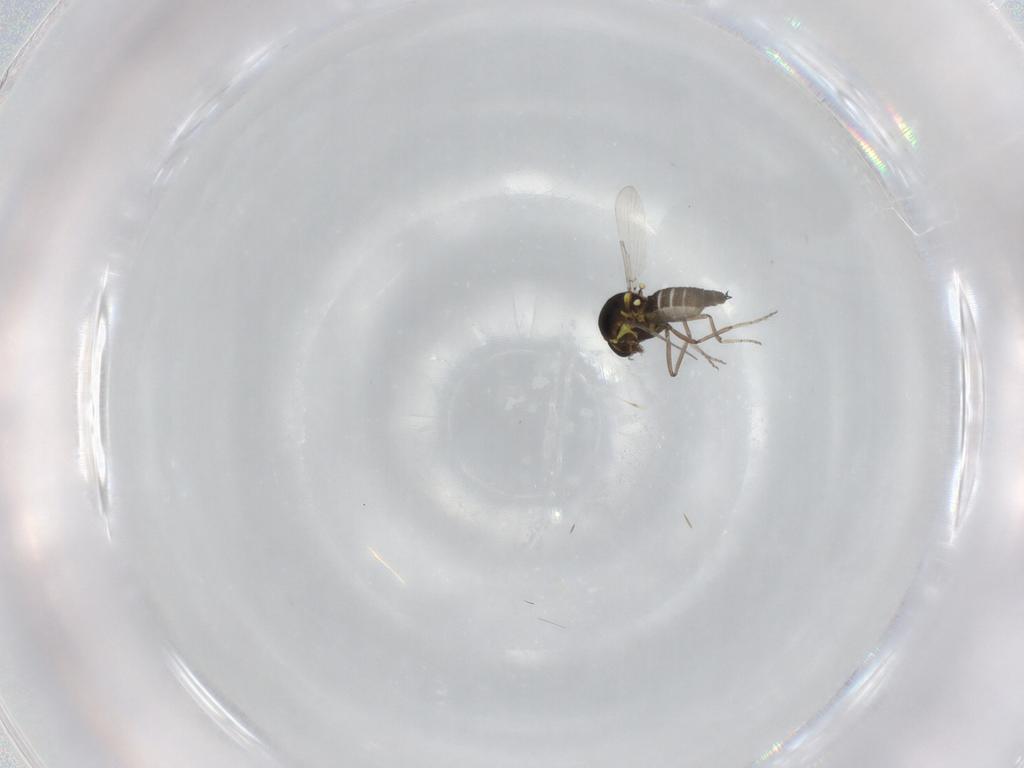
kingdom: Animalia
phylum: Arthropoda
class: Insecta
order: Diptera
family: Ceratopogonidae
